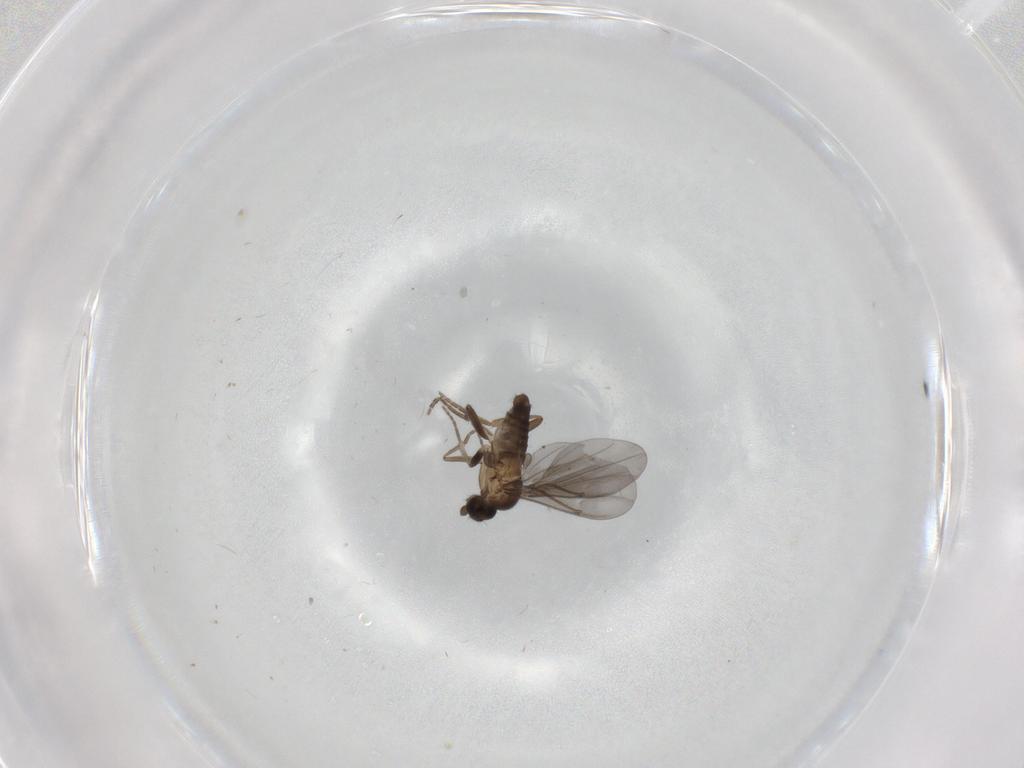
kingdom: Animalia
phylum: Arthropoda
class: Insecta
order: Diptera
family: Phoridae
